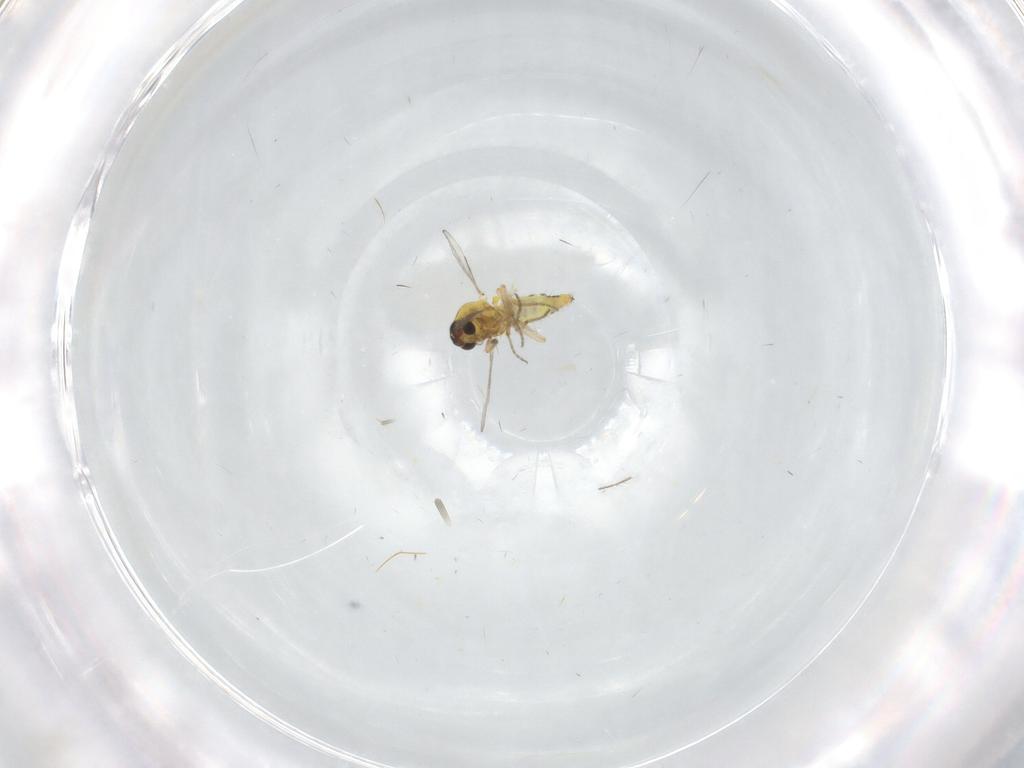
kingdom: Animalia
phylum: Arthropoda
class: Insecta
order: Diptera
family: Ceratopogonidae
